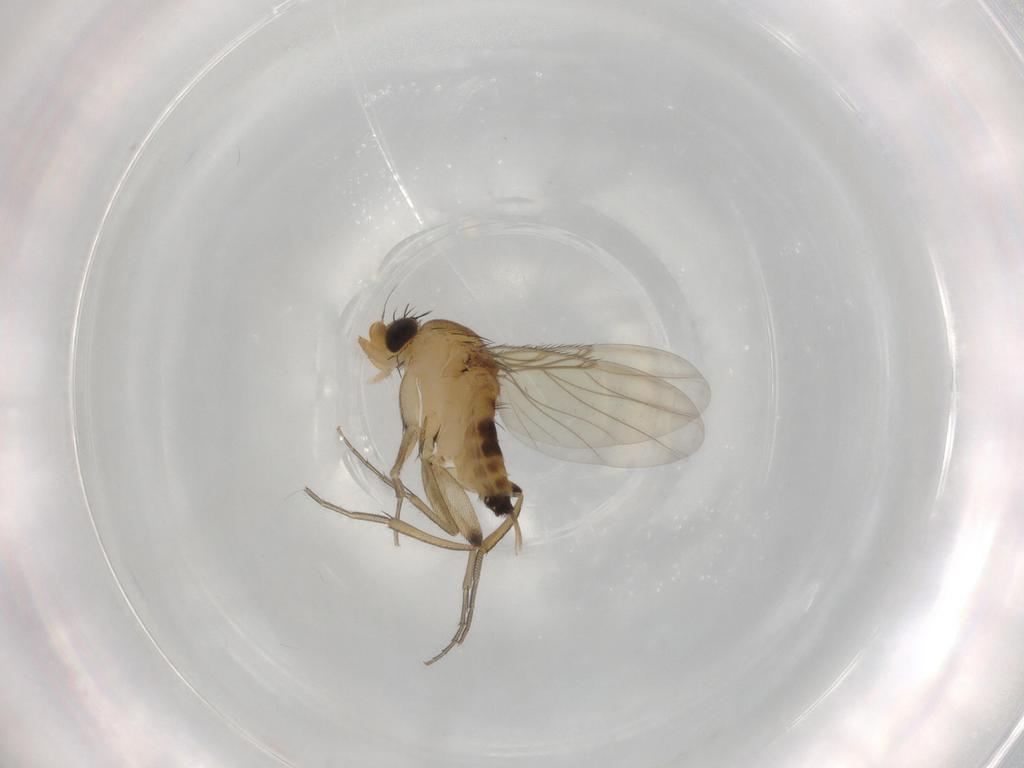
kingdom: Animalia
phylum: Arthropoda
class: Insecta
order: Diptera
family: Phoridae
